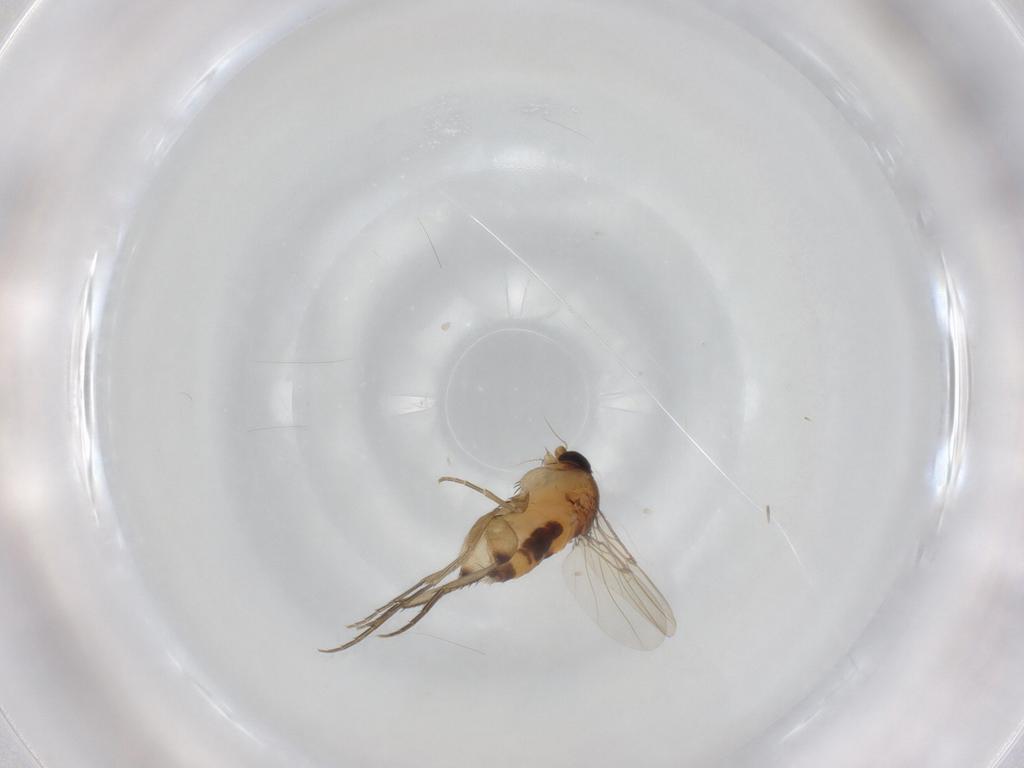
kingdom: Animalia
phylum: Arthropoda
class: Insecta
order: Diptera
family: Phoridae
